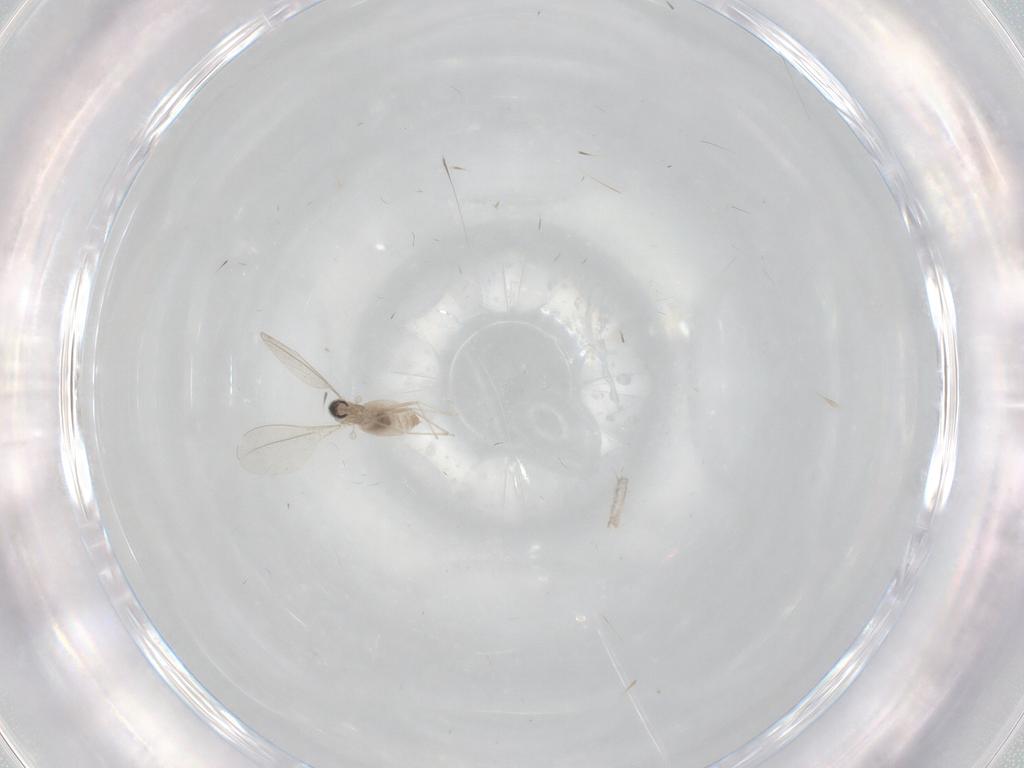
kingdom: Animalia
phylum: Arthropoda
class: Insecta
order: Diptera
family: Cecidomyiidae
